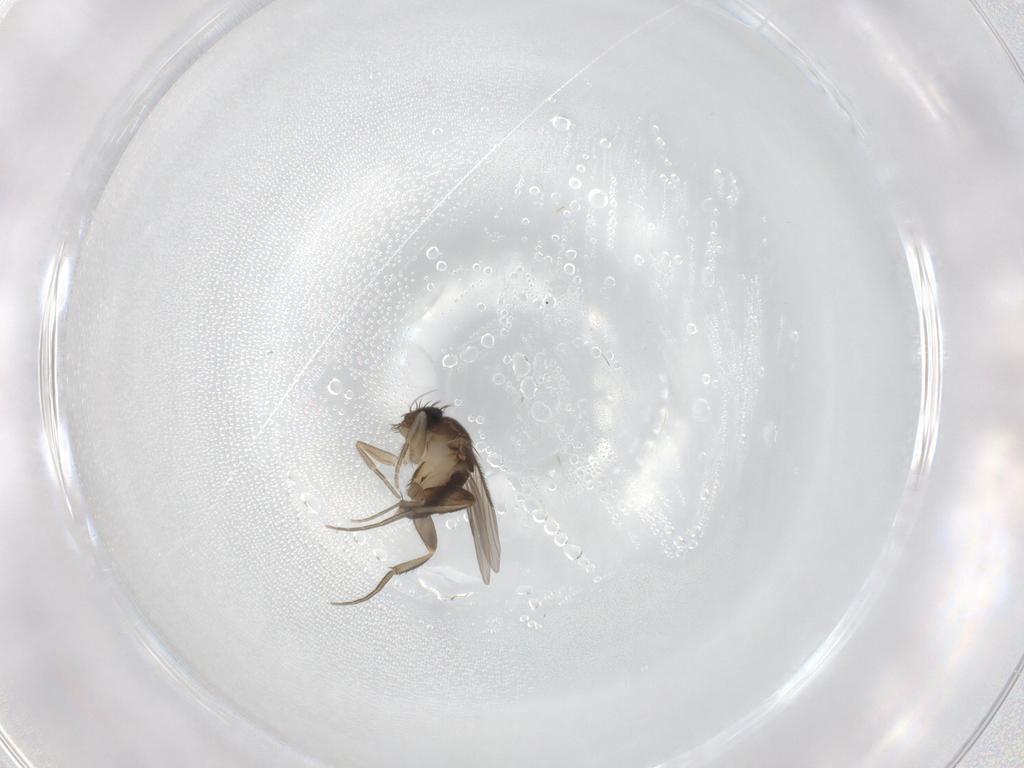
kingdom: Animalia
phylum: Arthropoda
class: Insecta
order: Diptera
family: Phoridae
